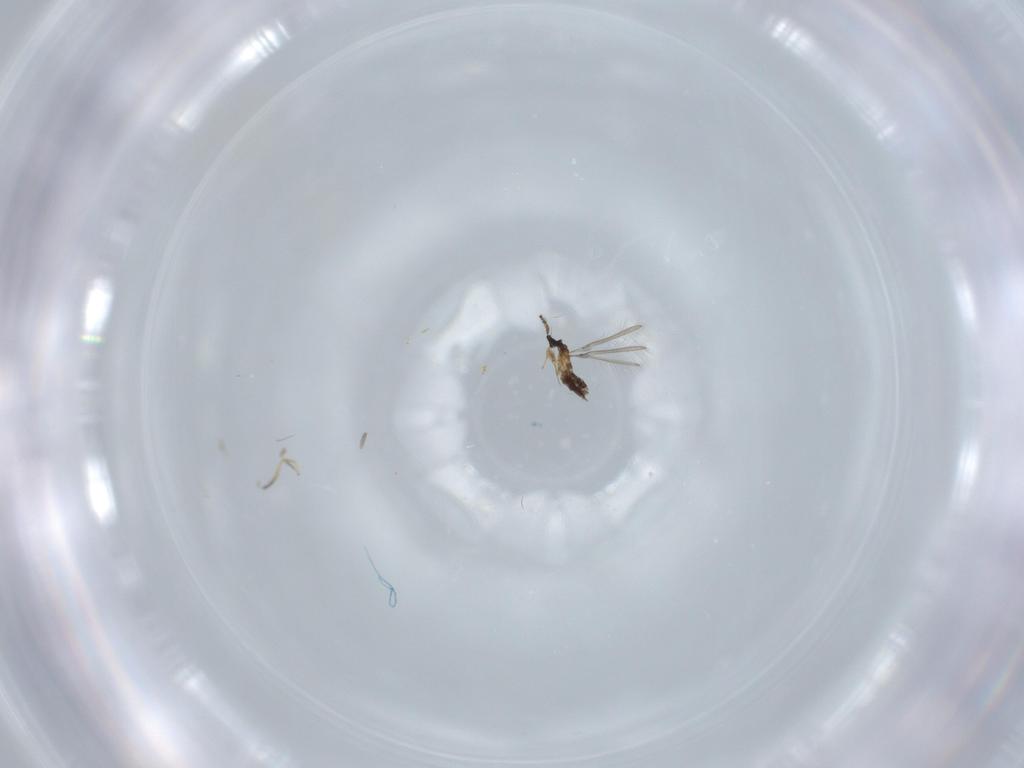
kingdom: Animalia
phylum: Arthropoda
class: Insecta
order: Hymenoptera
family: Mymaridae
